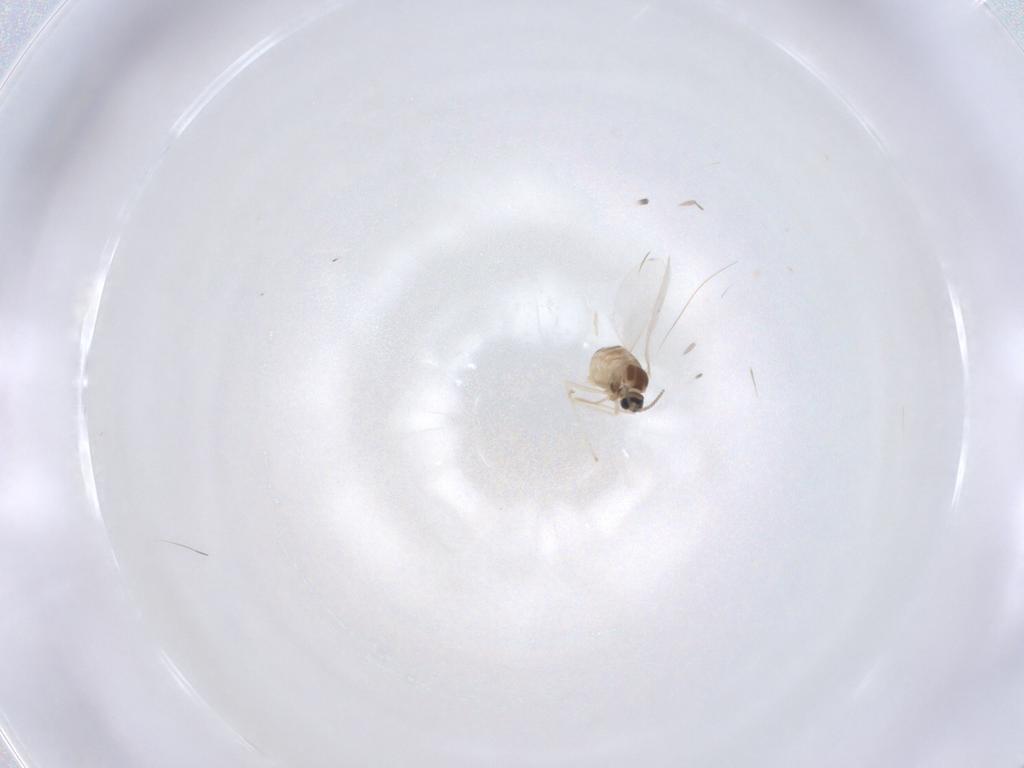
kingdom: Animalia
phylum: Arthropoda
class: Insecta
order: Diptera
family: Cecidomyiidae
